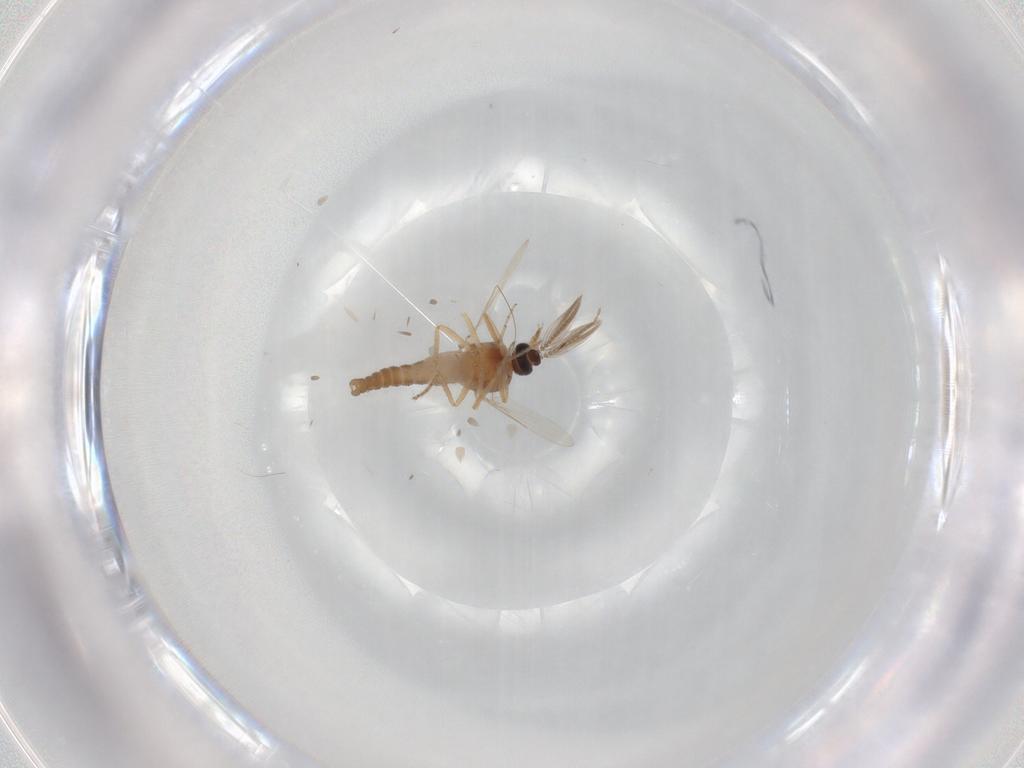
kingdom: Animalia
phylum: Arthropoda
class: Insecta
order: Diptera
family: Ceratopogonidae
